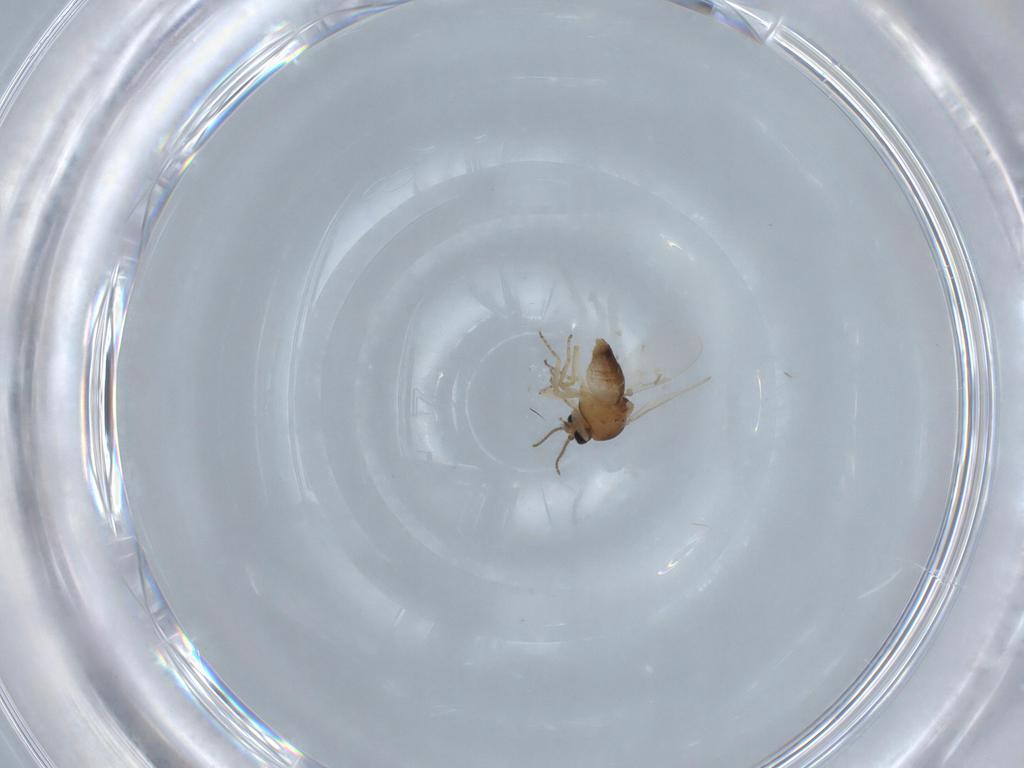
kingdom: Animalia
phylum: Arthropoda
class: Insecta
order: Diptera
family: Ceratopogonidae
